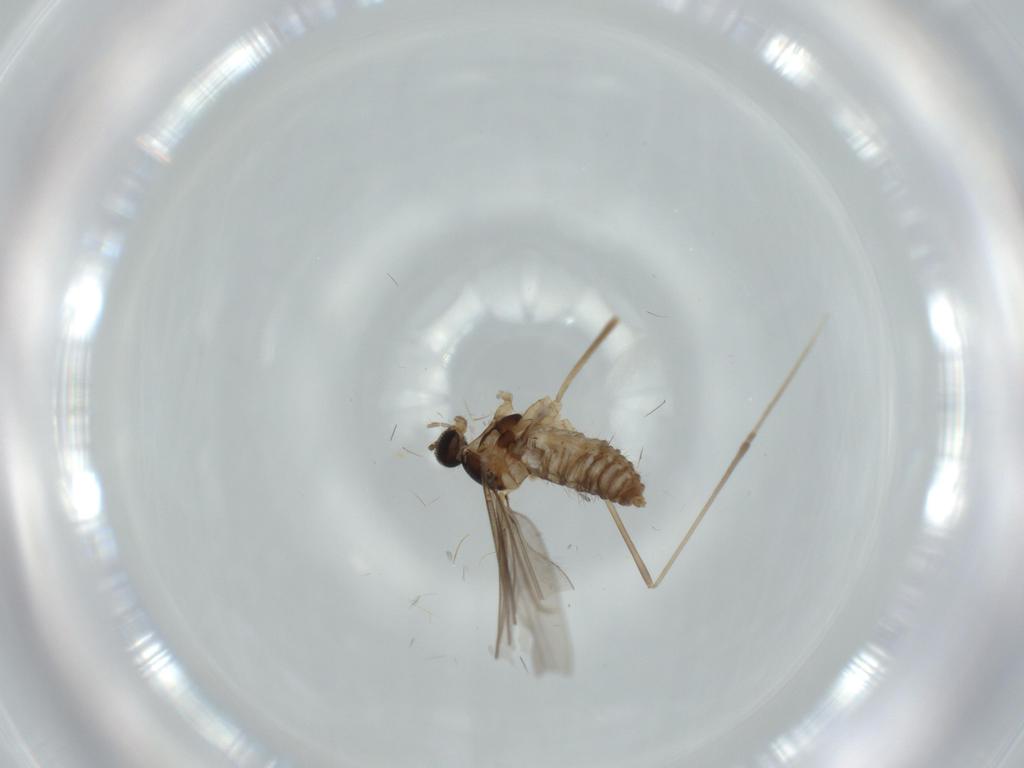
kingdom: Animalia
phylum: Arthropoda
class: Insecta
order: Diptera
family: Cecidomyiidae
